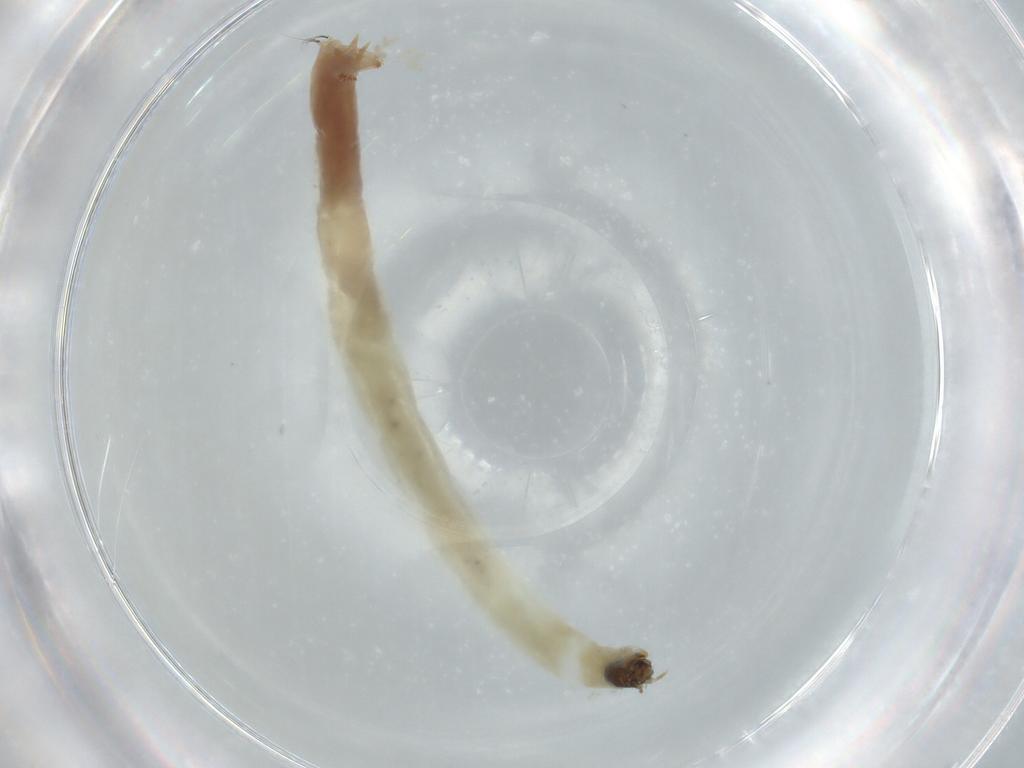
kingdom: Animalia
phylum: Arthropoda
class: Insecta
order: Diptera
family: Chironomidae
